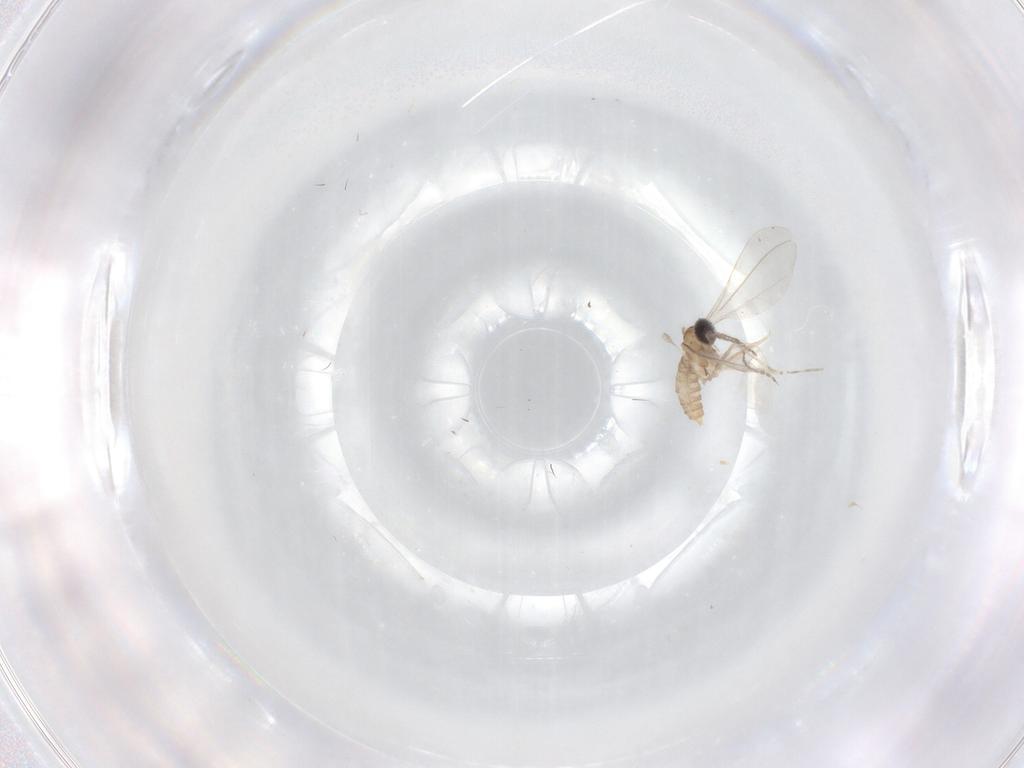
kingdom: Animalia
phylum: Arthropoda
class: Insecta
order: Diptera
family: Cecidomyiidae
